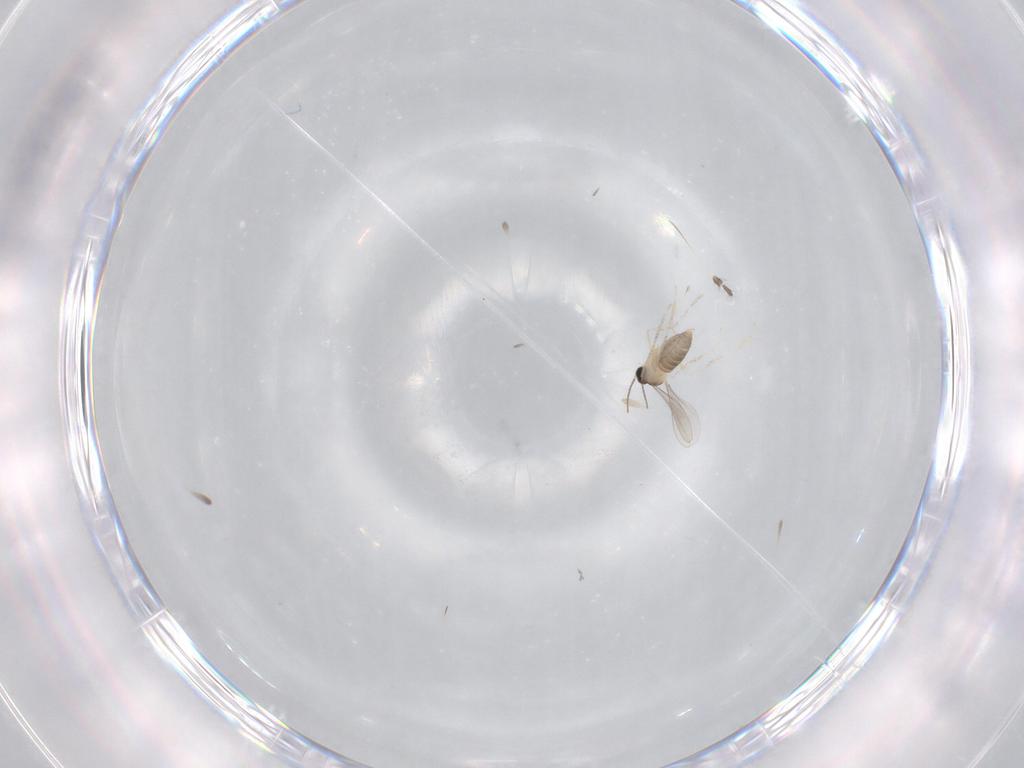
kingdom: Animalia
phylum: Arthropoda
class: Insecta
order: Diptera
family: Cecidomyiidae
